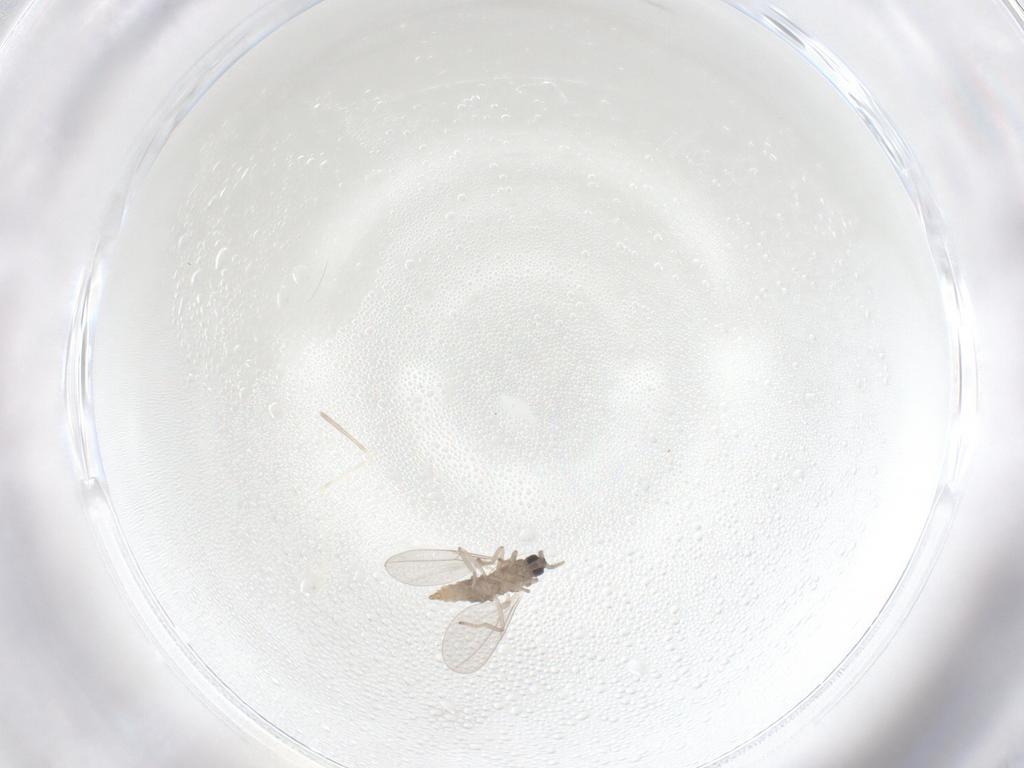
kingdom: Animalia
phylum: Arthropoda
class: Insecta
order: Diptera
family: Cecidomyiidae
